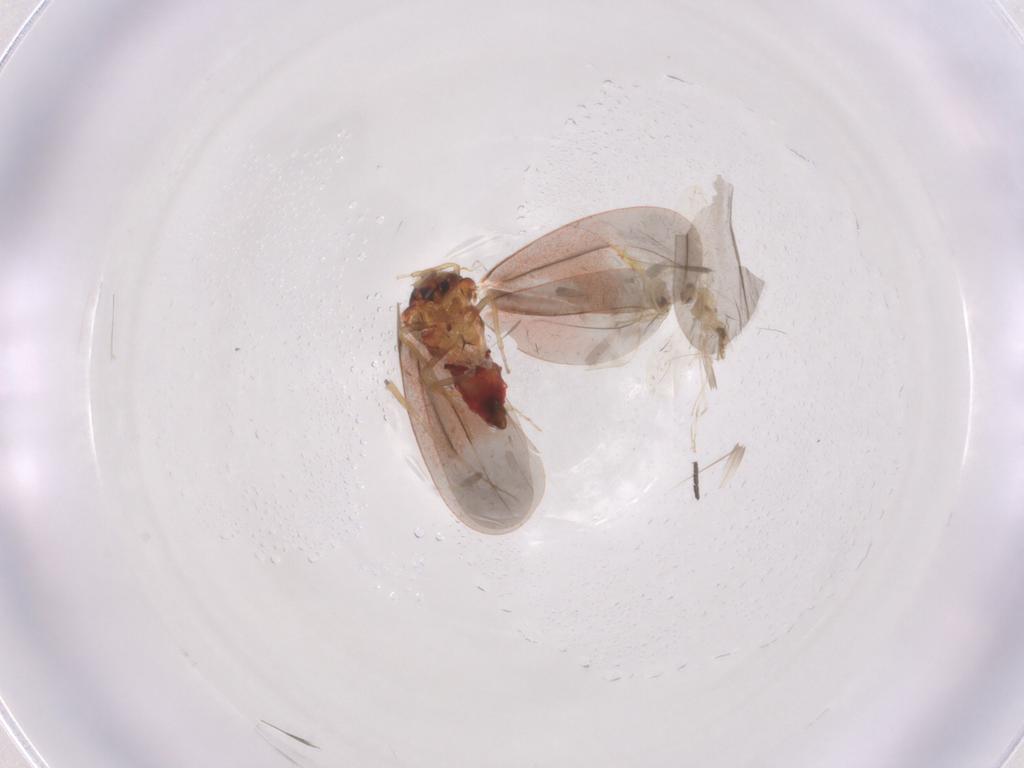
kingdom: Animalia
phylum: Arthropoda
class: Insecta
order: Hemiptera
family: Aleyrodidae
